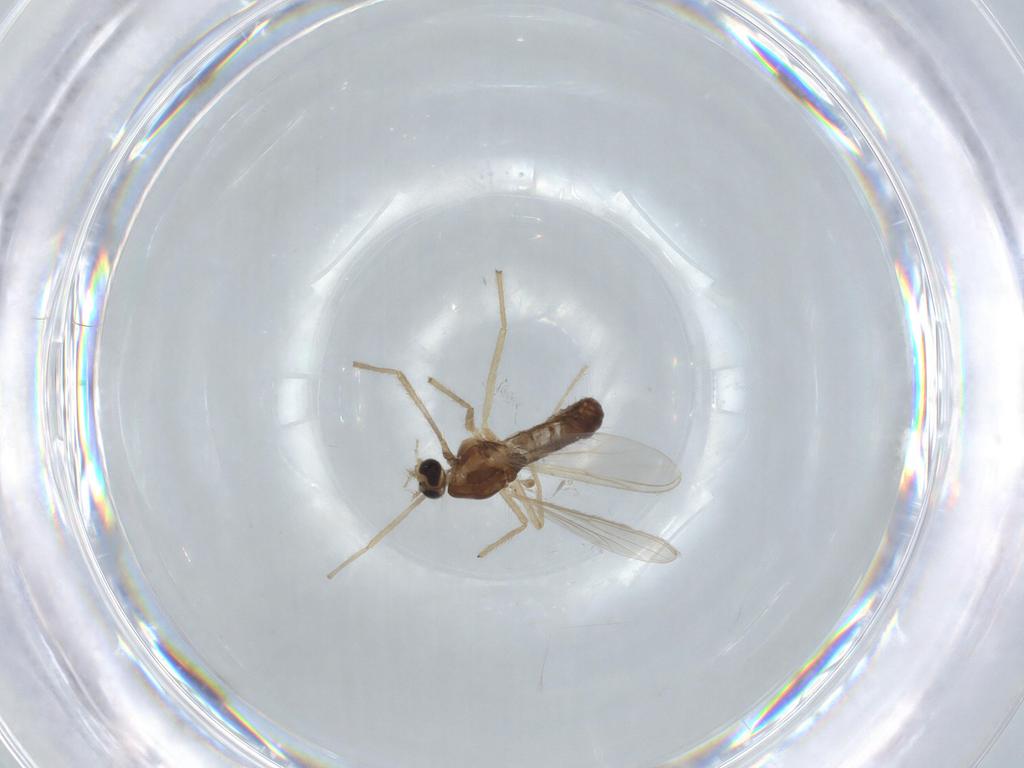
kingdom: Animalia
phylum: Arthropoda
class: Insecta
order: Diptera
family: Chironomidae
